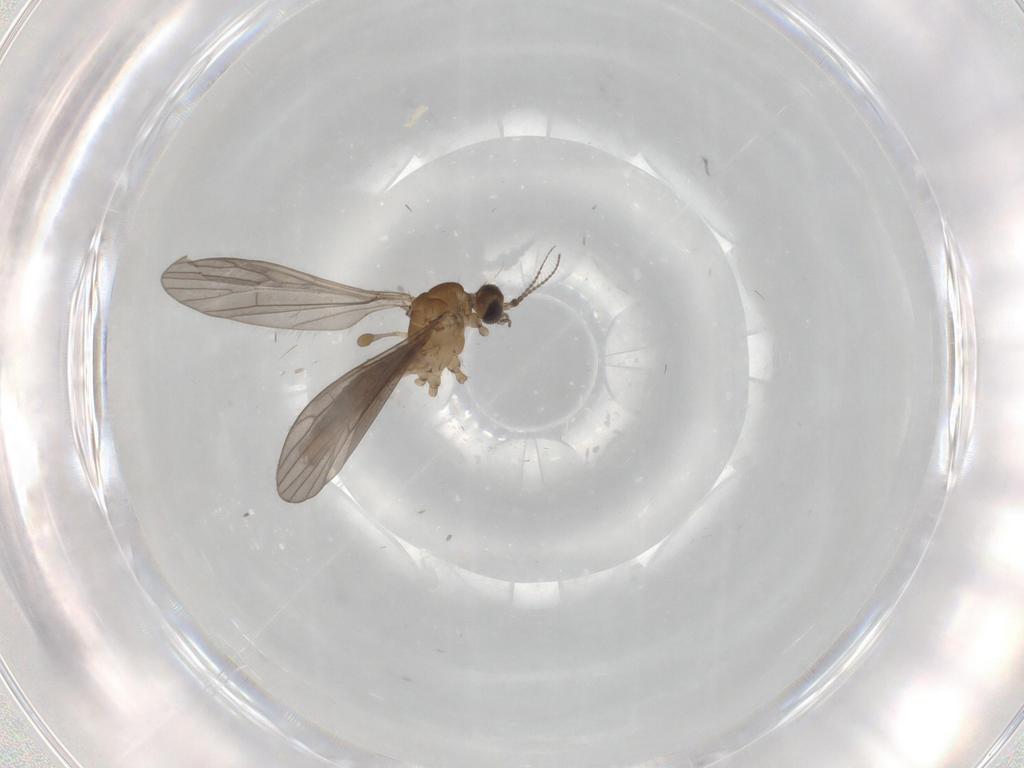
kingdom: Animalia
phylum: Arthropoda
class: Insecta
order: Diptera
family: Limoniidae
